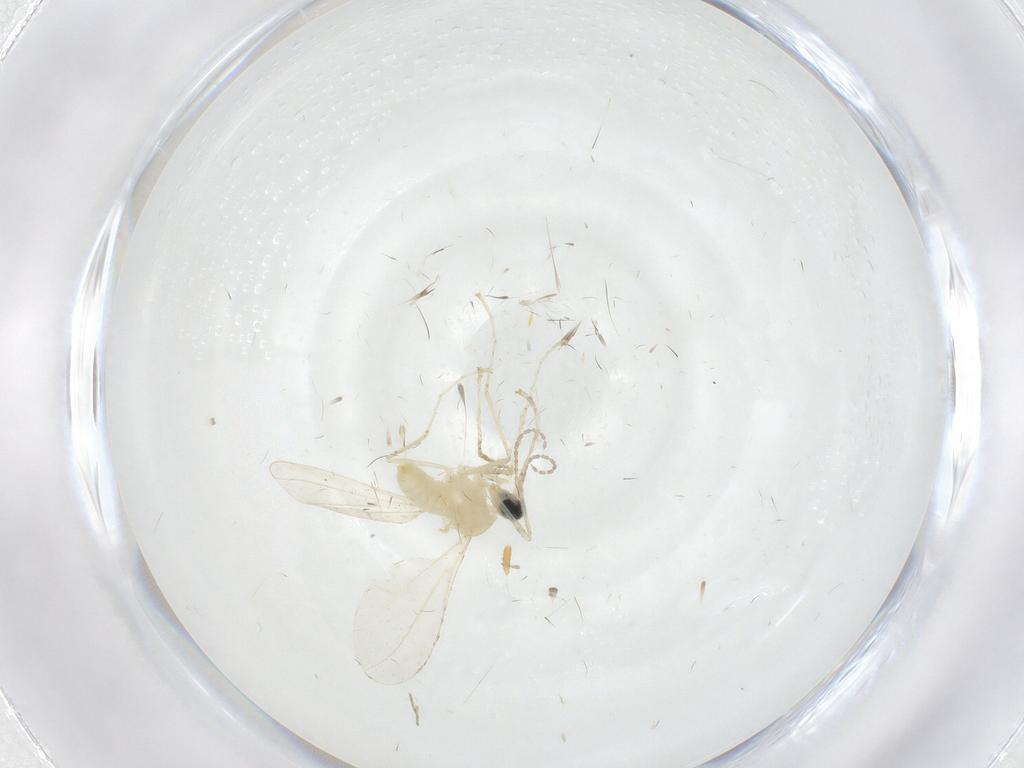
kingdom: Animalia
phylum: Arthropoda
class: Insecta
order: Diptera
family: Cecidomyiidae
